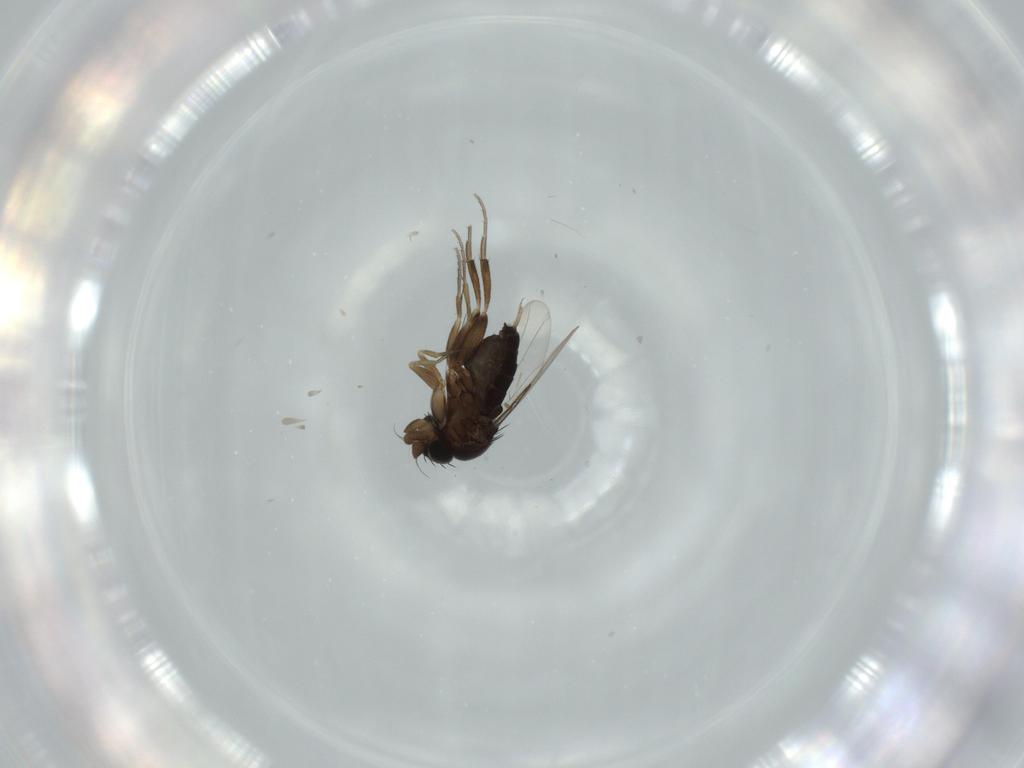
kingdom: Animalia
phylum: Arthropoda
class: Insecta
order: Diptera
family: Phoridae
